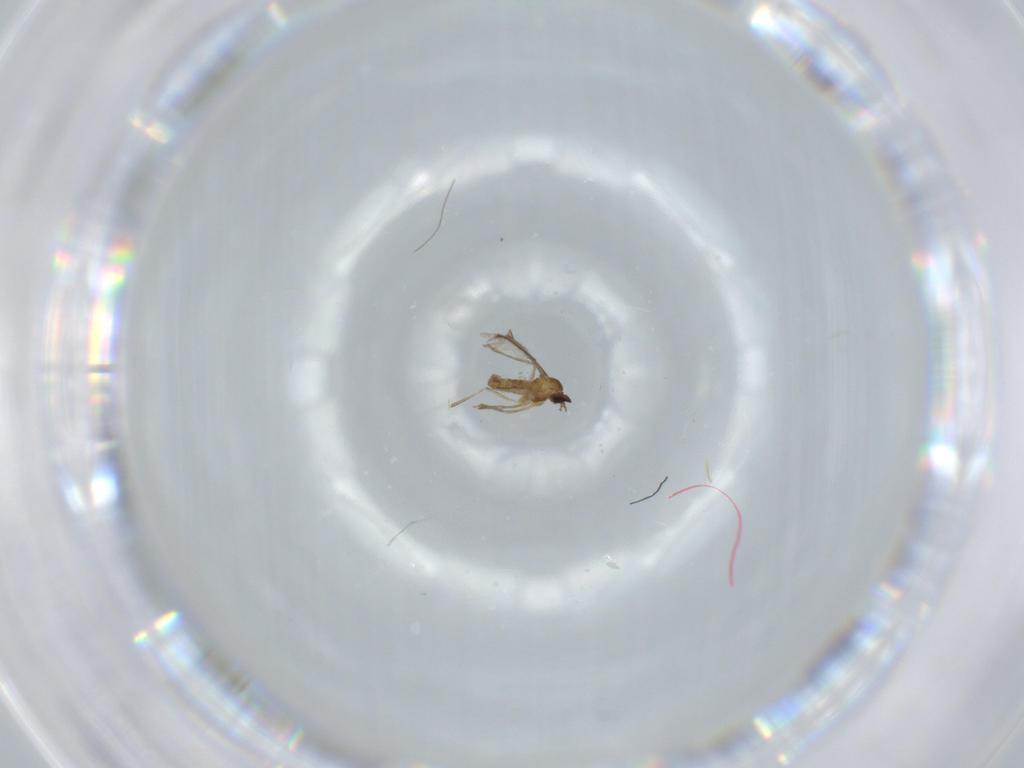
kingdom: Animalia
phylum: Arthropoda
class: Insecta
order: Diptera
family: Cecidomyiidae
